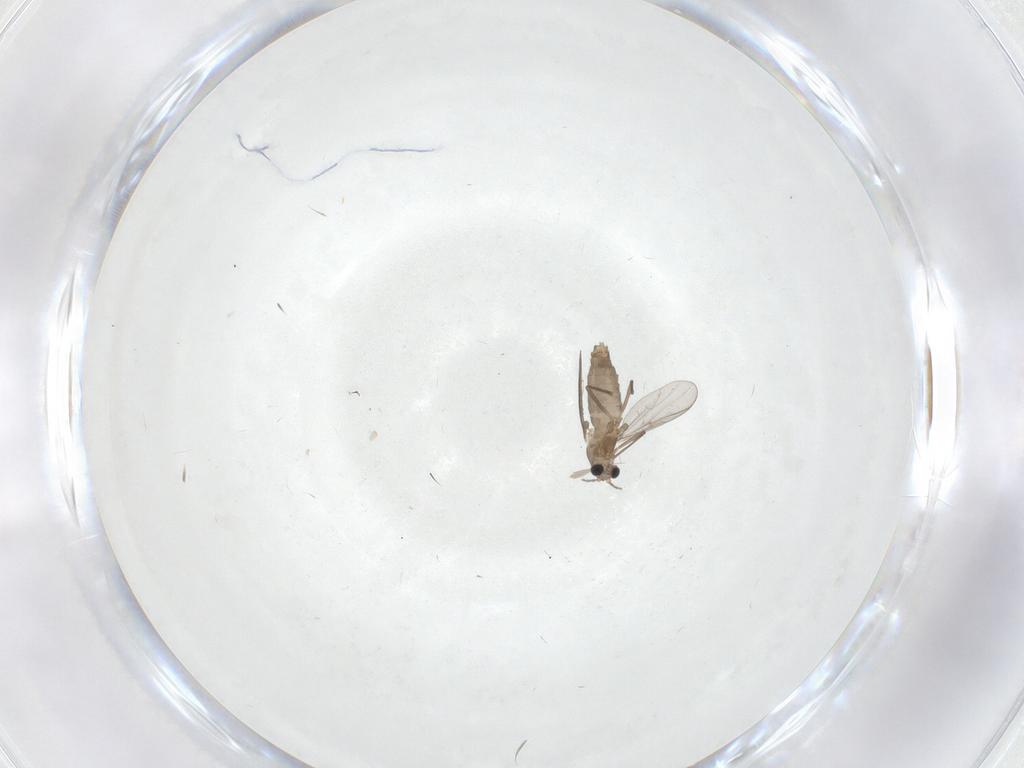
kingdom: Animalia
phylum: Arthropoda
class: Insecta
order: Diptera
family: Chironomidae
